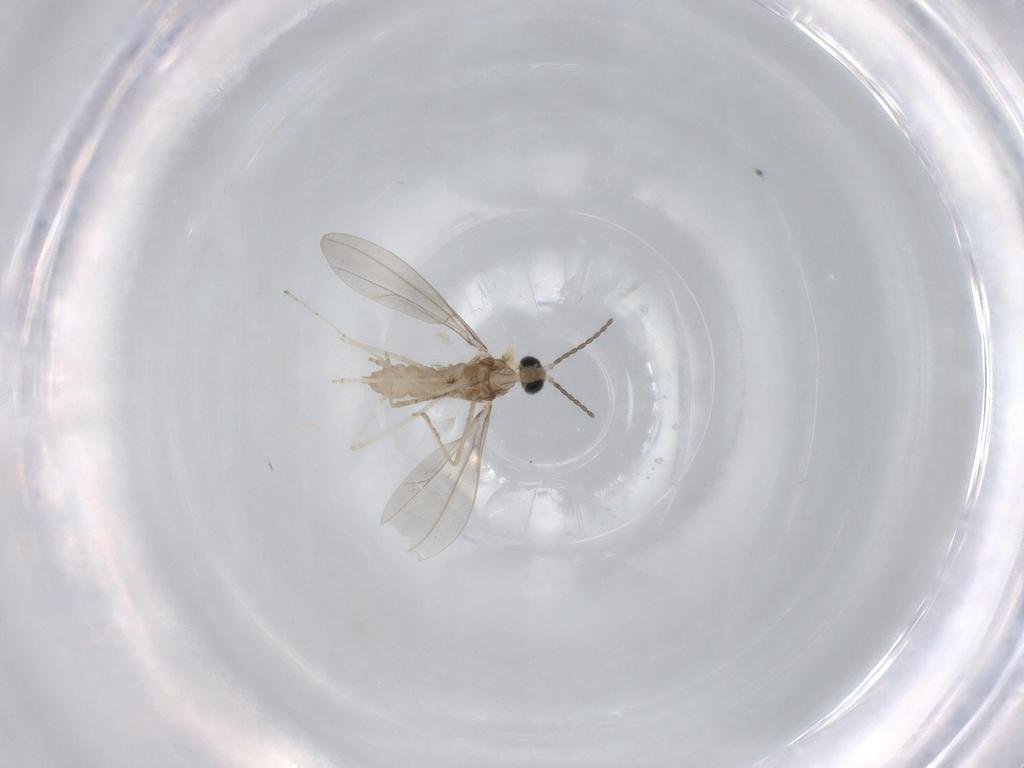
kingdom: Animalia
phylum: Arthropoda
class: Insecta
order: Diptera
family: Cecidomyiidae
